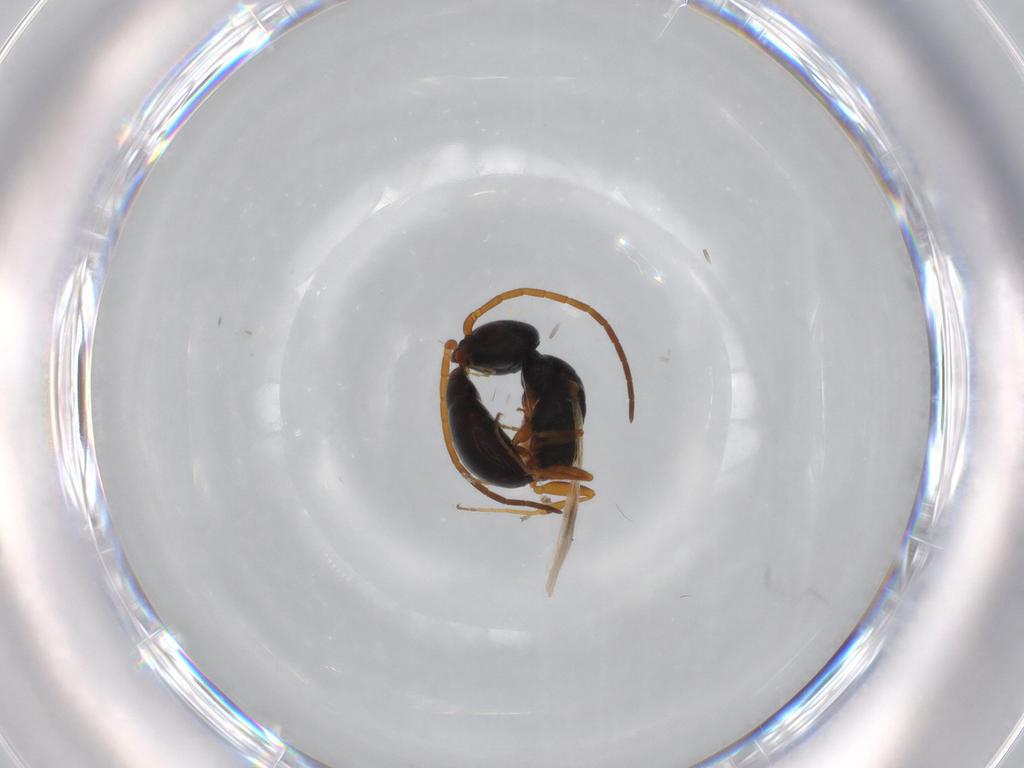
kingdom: Animalia
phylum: Arthropoda
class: Insecta
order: Hymenoptera
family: Bethylidae
